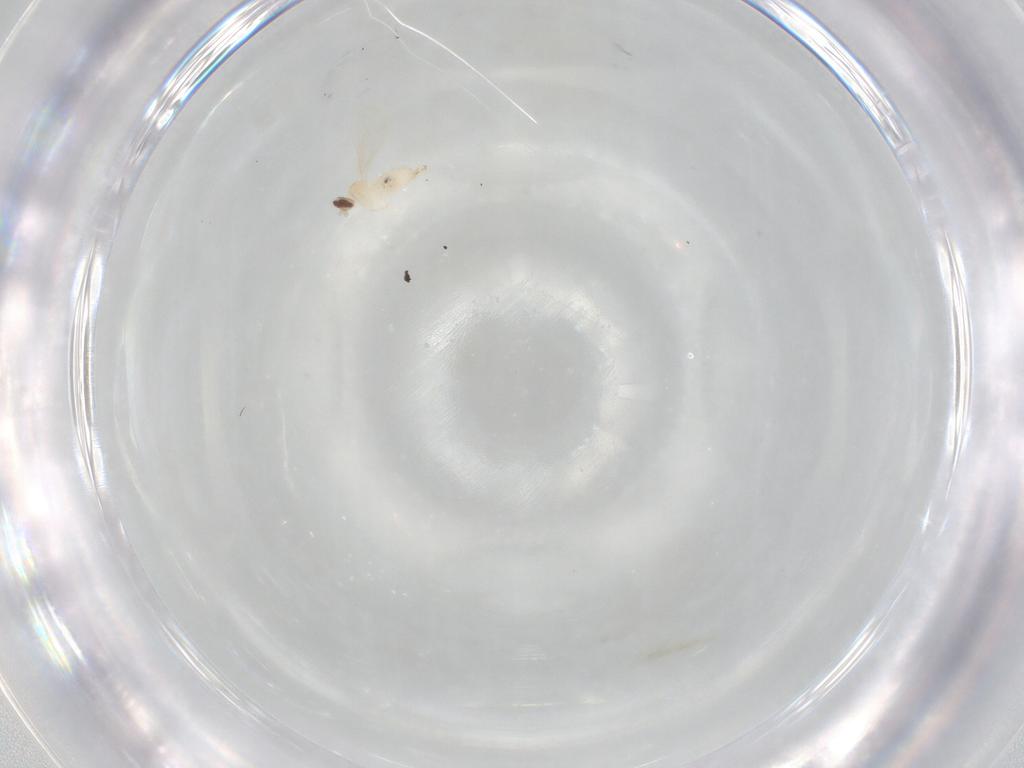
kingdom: Animalia
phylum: Arthropoda
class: Insecta
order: Diptera
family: Cecidomyiidae
